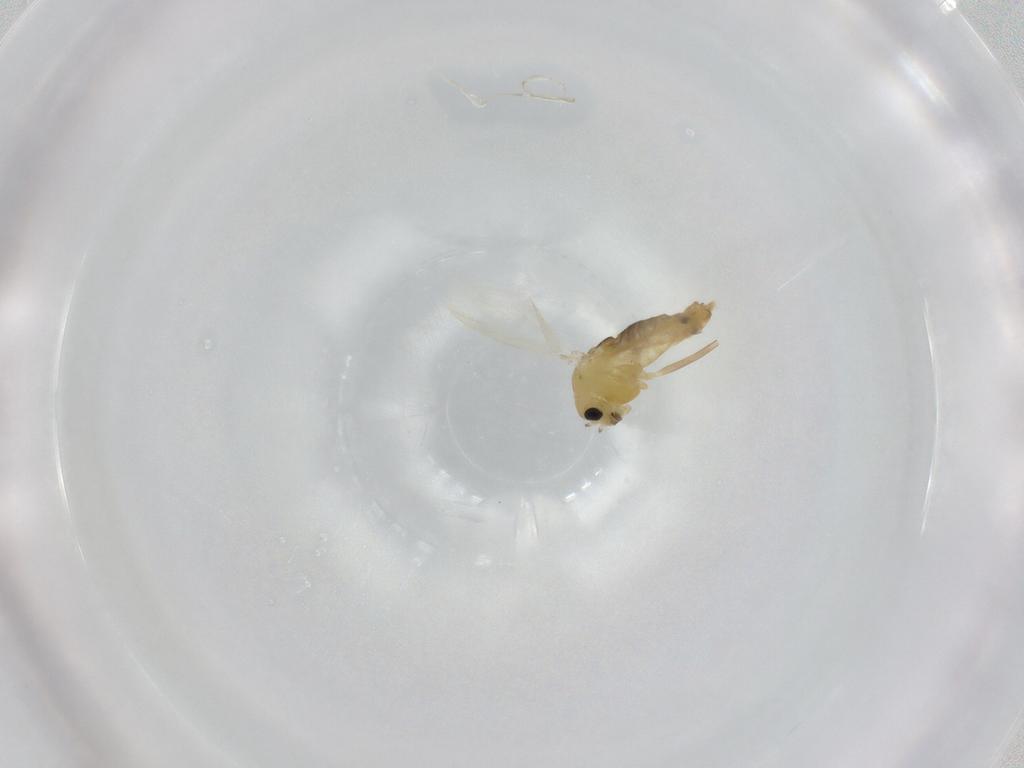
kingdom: Animalia
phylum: Arthropoda
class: Insecta
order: Diptera
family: Chironomidae
